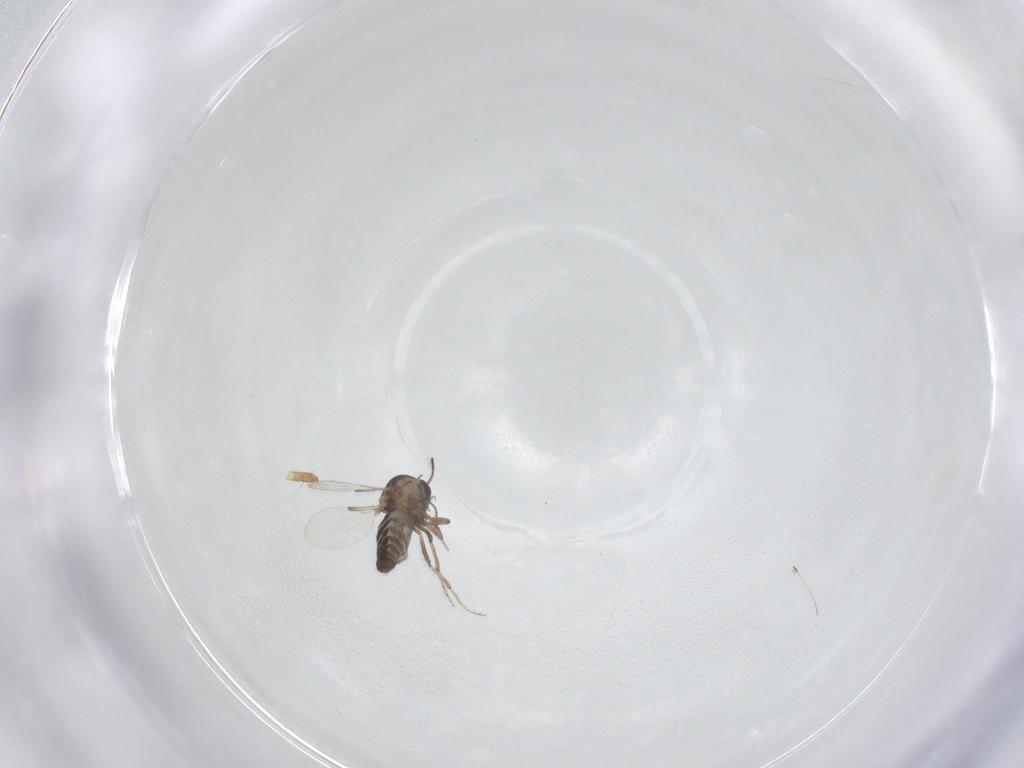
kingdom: Animalia
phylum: Arthropoda
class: Insecta
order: Diptera
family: Ceratopogonidae
